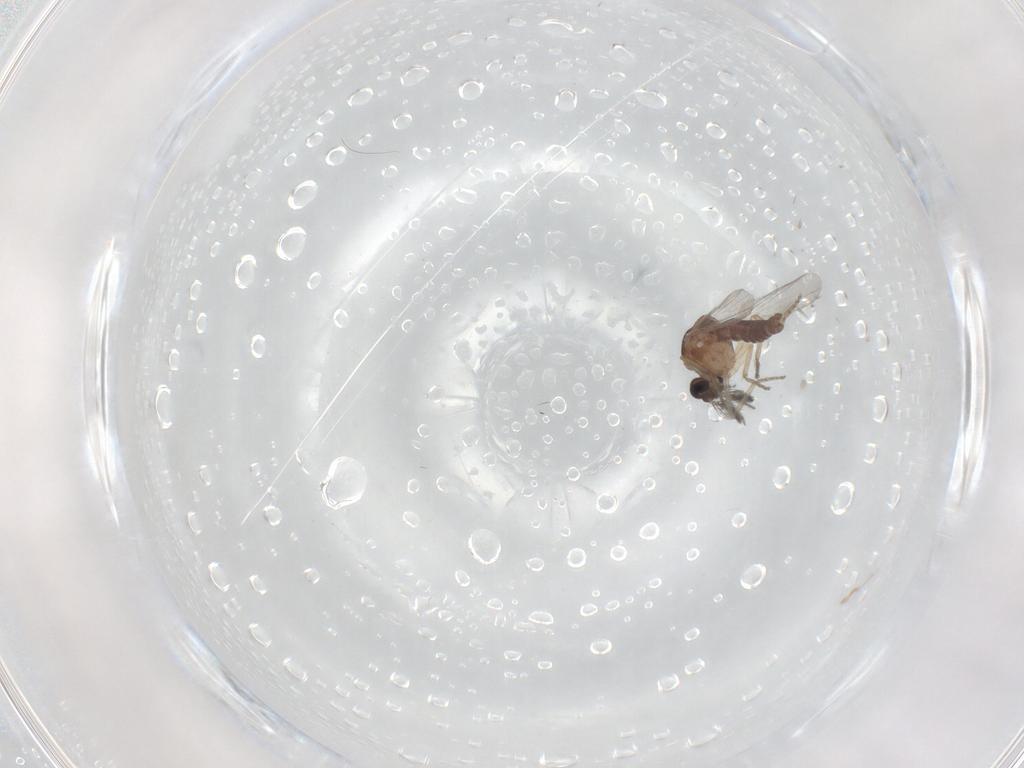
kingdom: Animalia
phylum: Arthropoda
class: Insecta
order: Diptera
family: Ceratopogonidae
